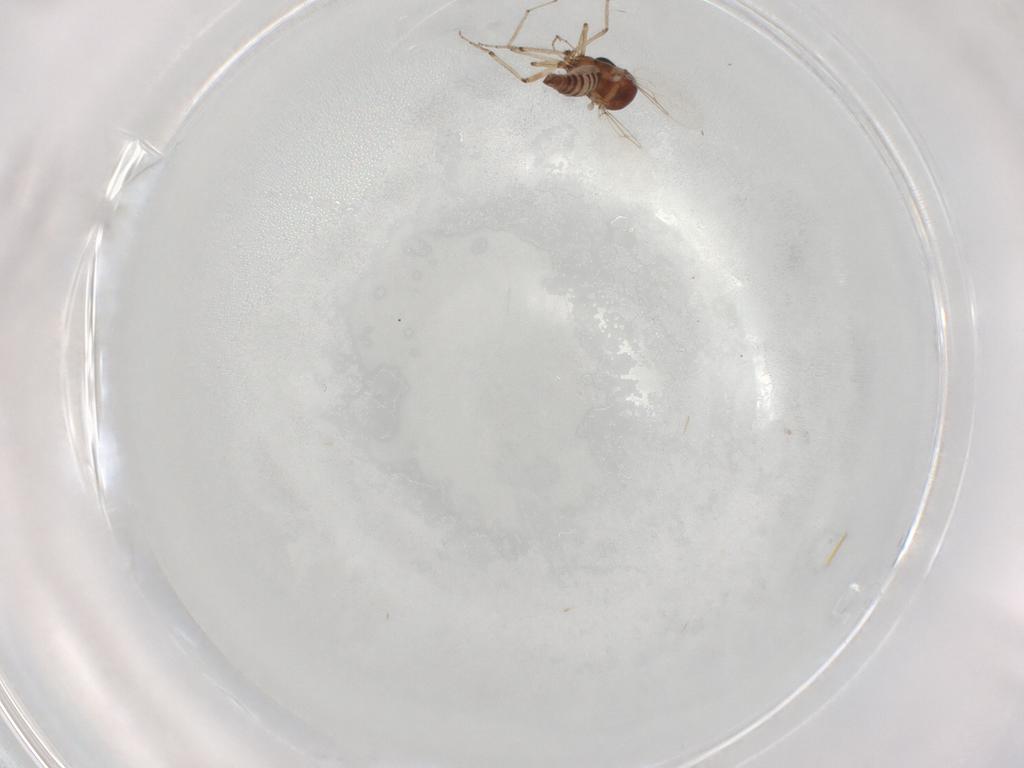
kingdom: Animalia
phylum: Arthropoda
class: Insecta
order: Diptera
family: Ceratopogonidae
